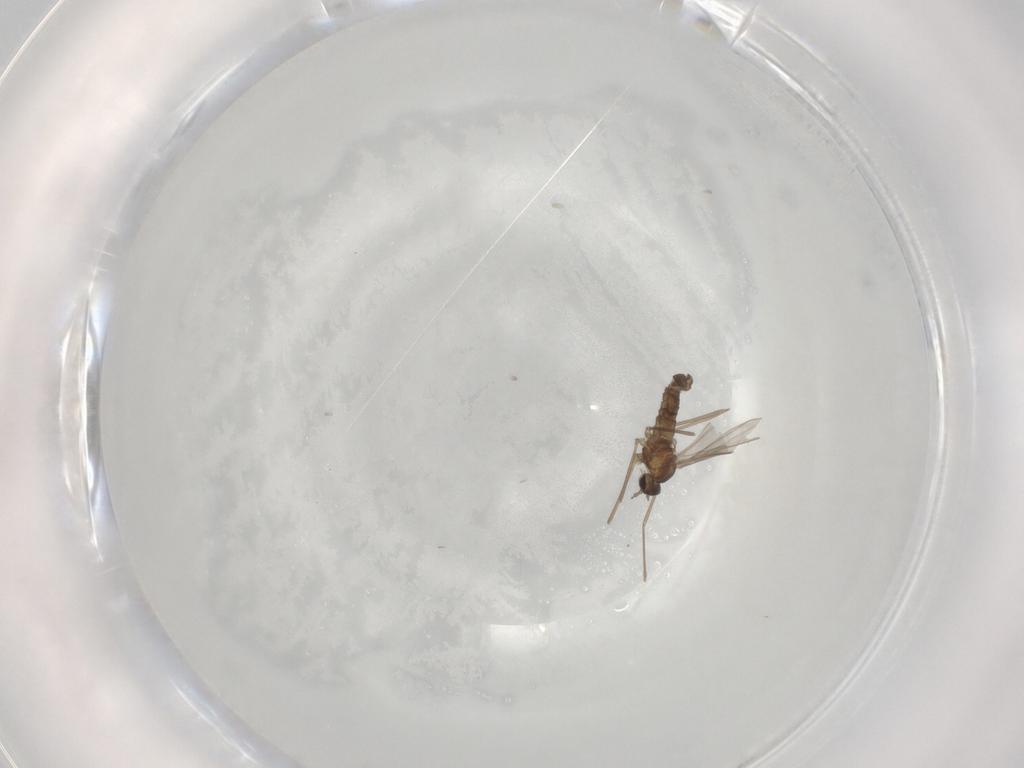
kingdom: Animalia
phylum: Arthropoda
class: Insecta
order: Diptera
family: Cecidomyiidae
